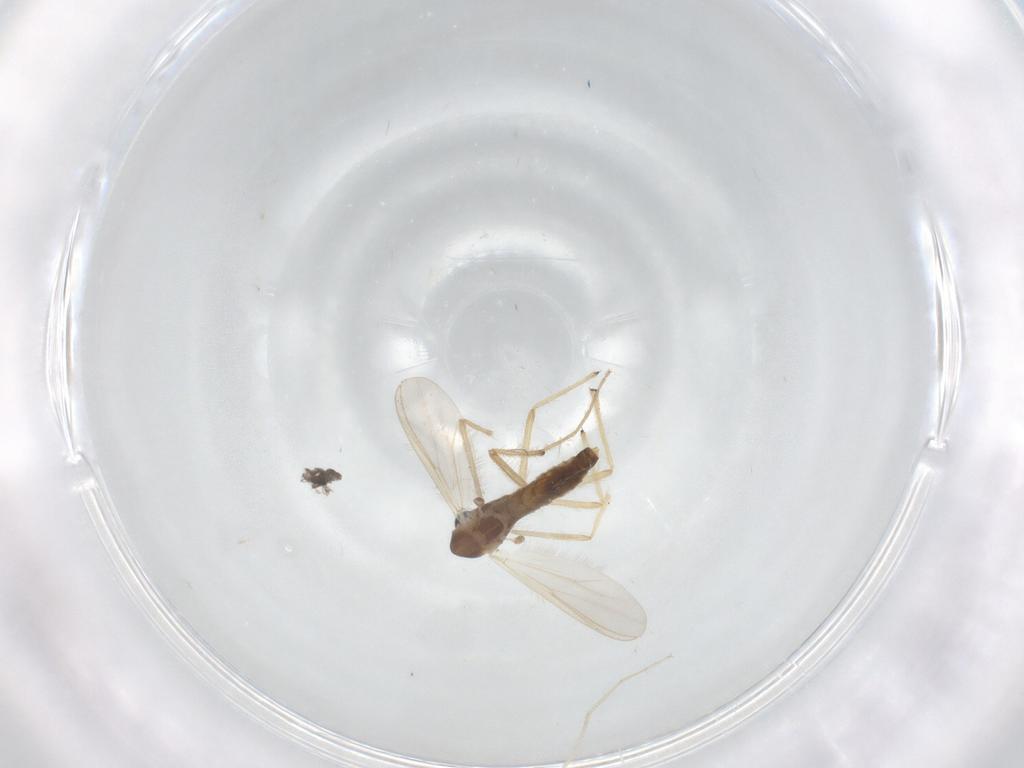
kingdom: Animalia
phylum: Arthropoda
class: Insecta
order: Diptera
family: Chironomidae
